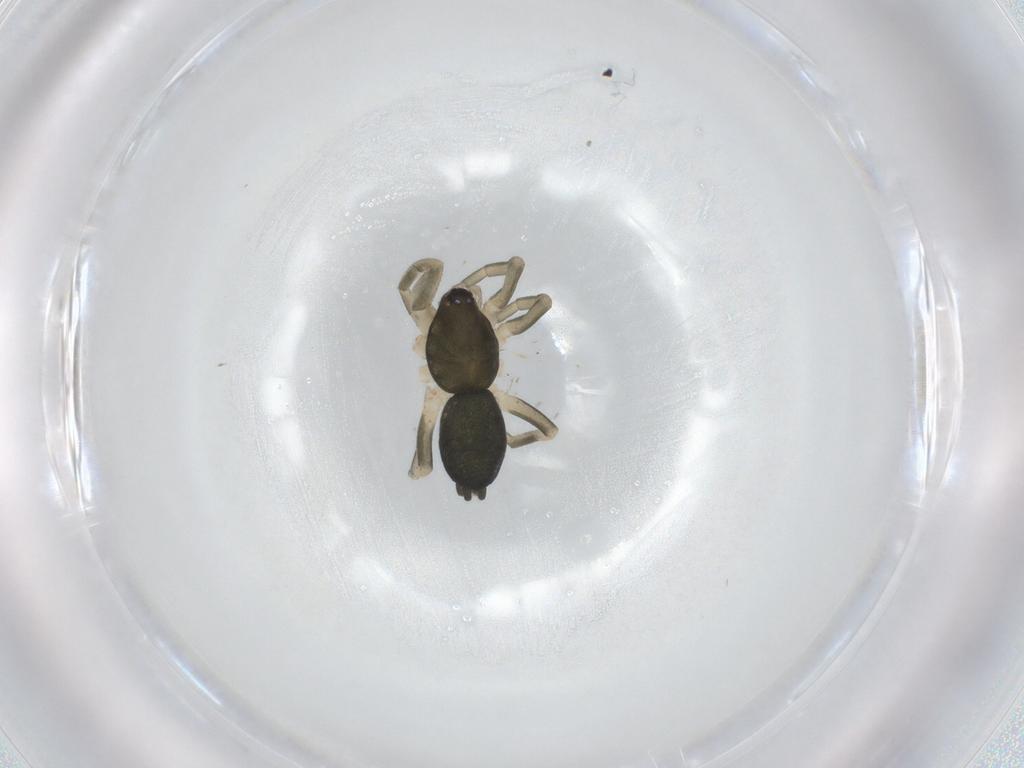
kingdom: Animalia
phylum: Arthropoda
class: Arachnida
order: Araneae
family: Gnaphosidae
